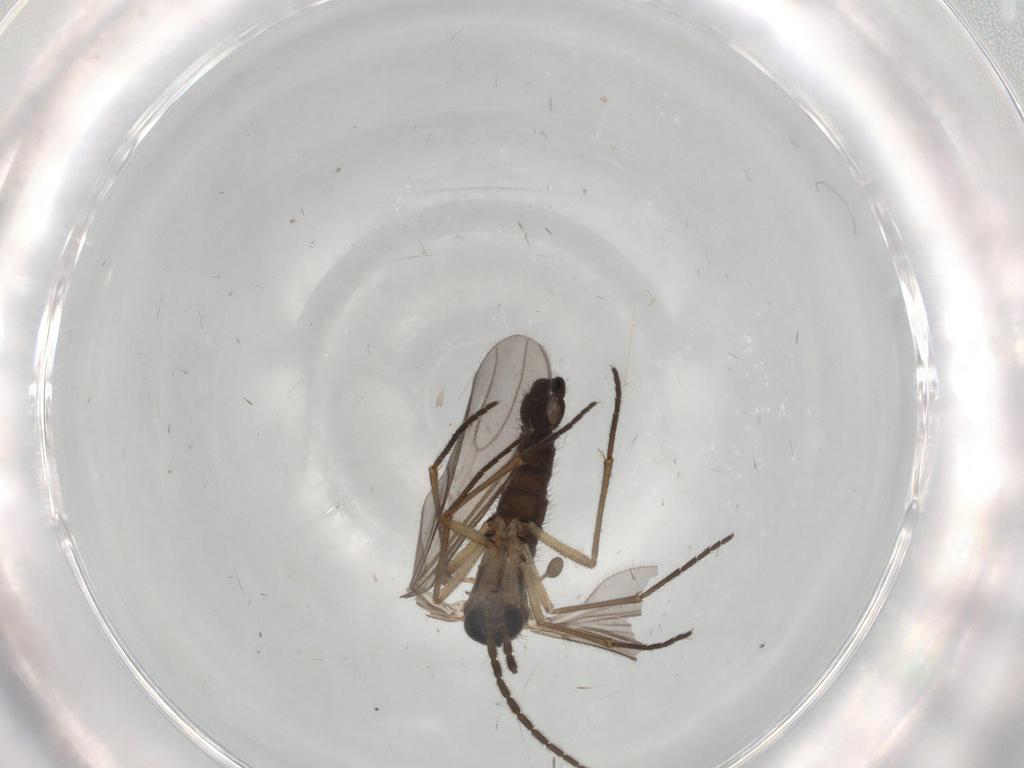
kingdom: Animalia
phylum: Arthropoda
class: Insecta
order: Diptera
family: Sciaridae
